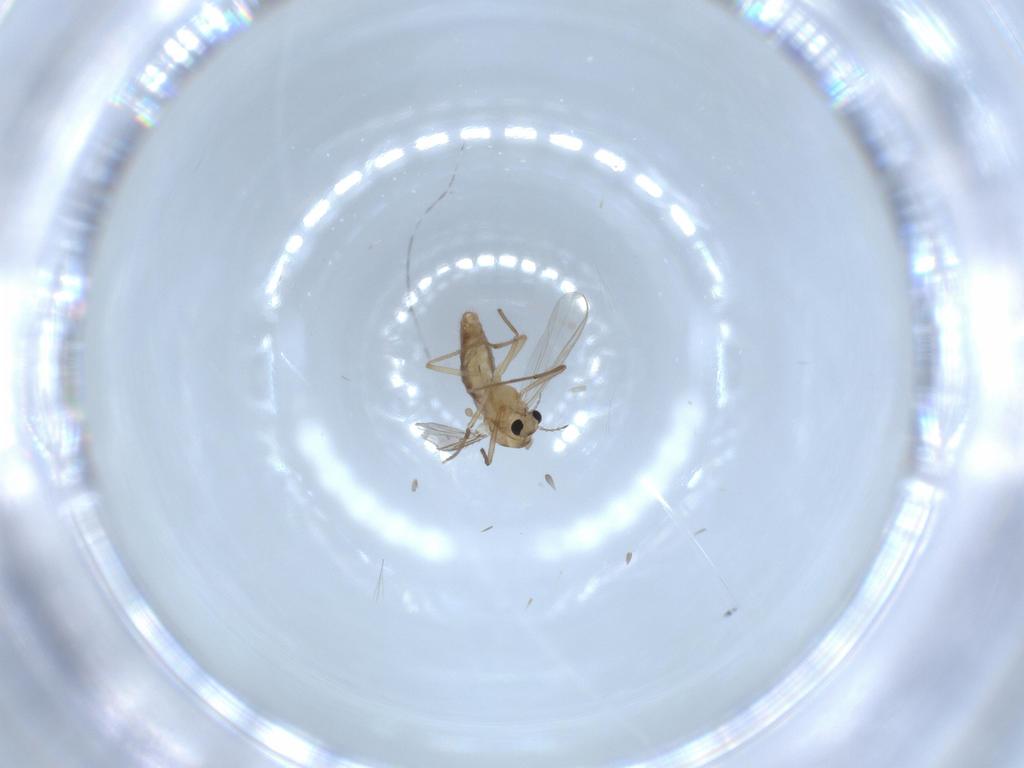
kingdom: Animalia
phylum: Arthropoda
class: Insecta
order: Diptera
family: Chironomidae
